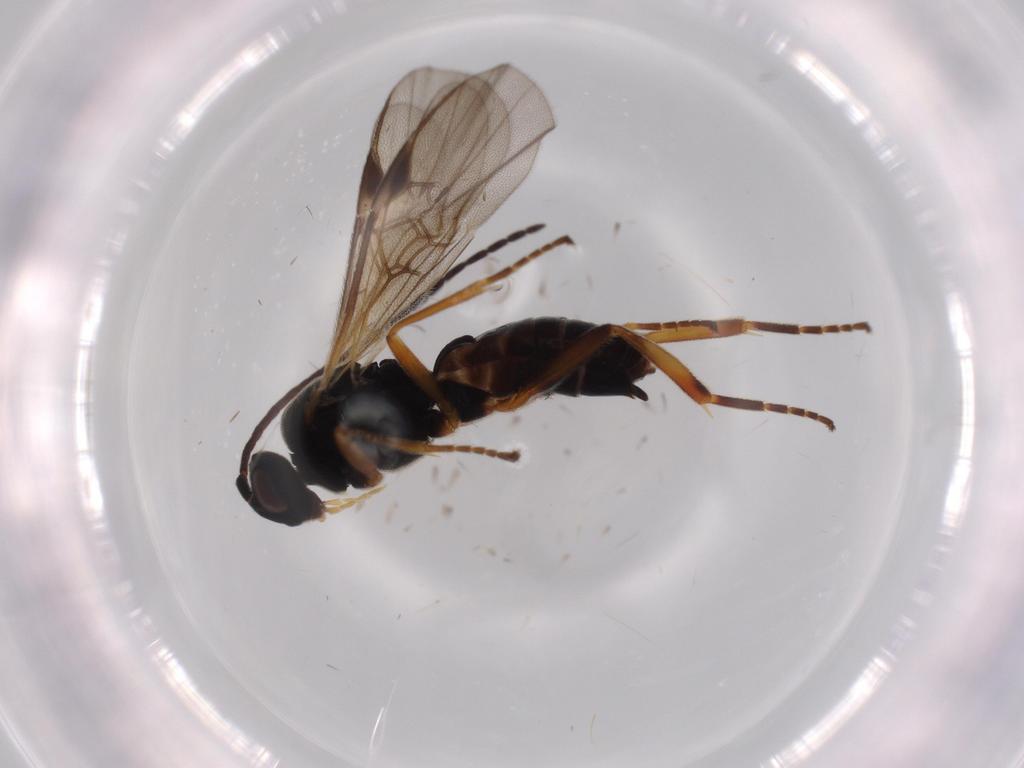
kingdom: Animalia
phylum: Arthropoda
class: Insecta
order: Hymenoptera
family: Braconidae
